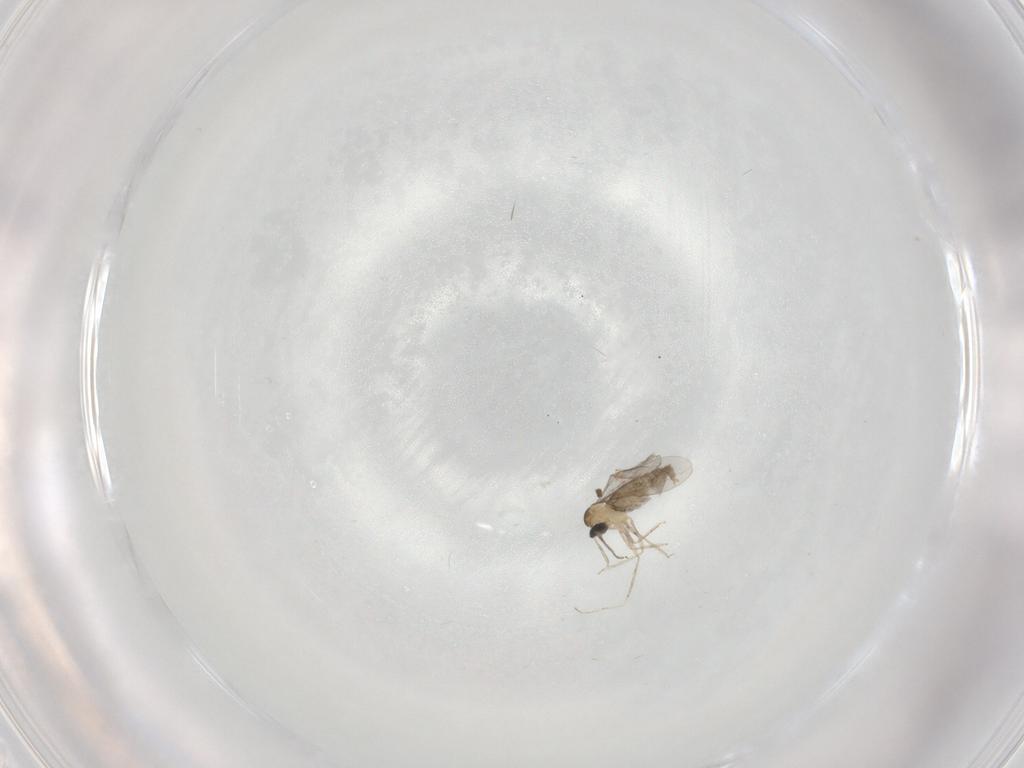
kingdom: Animalia
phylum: Arthropoda
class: Insecta
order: Diptera
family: Cecidomyiidae
